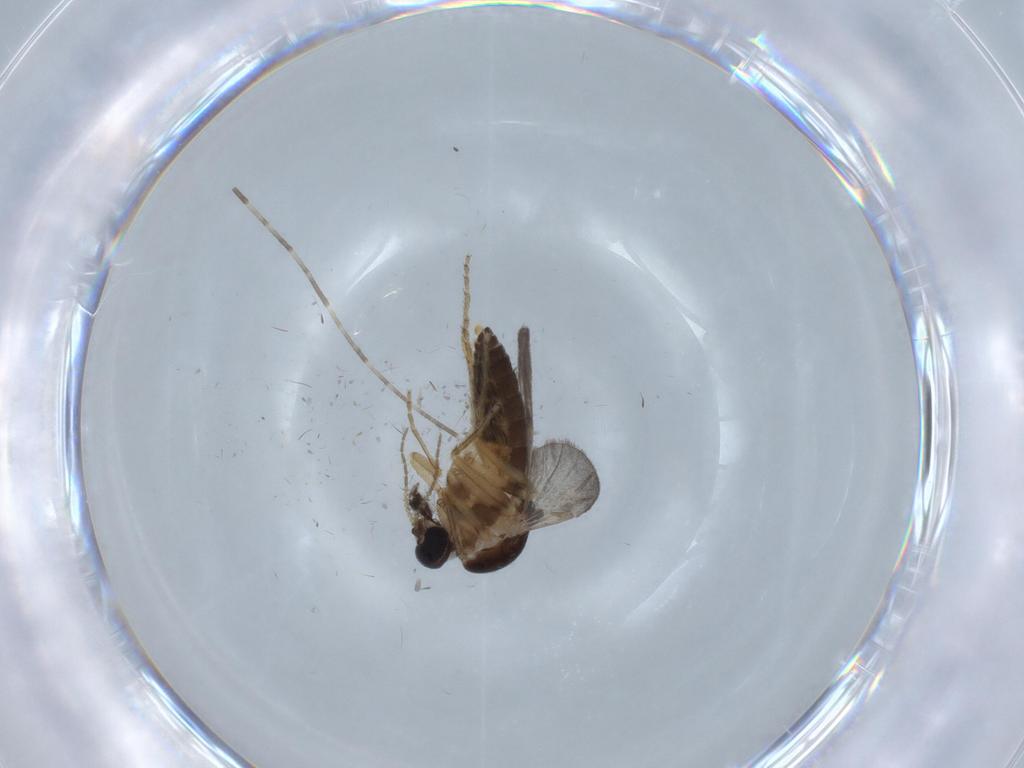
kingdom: Animalia
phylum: Arthropoda
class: Insecta
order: Diptera
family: Ceratopogonidae
